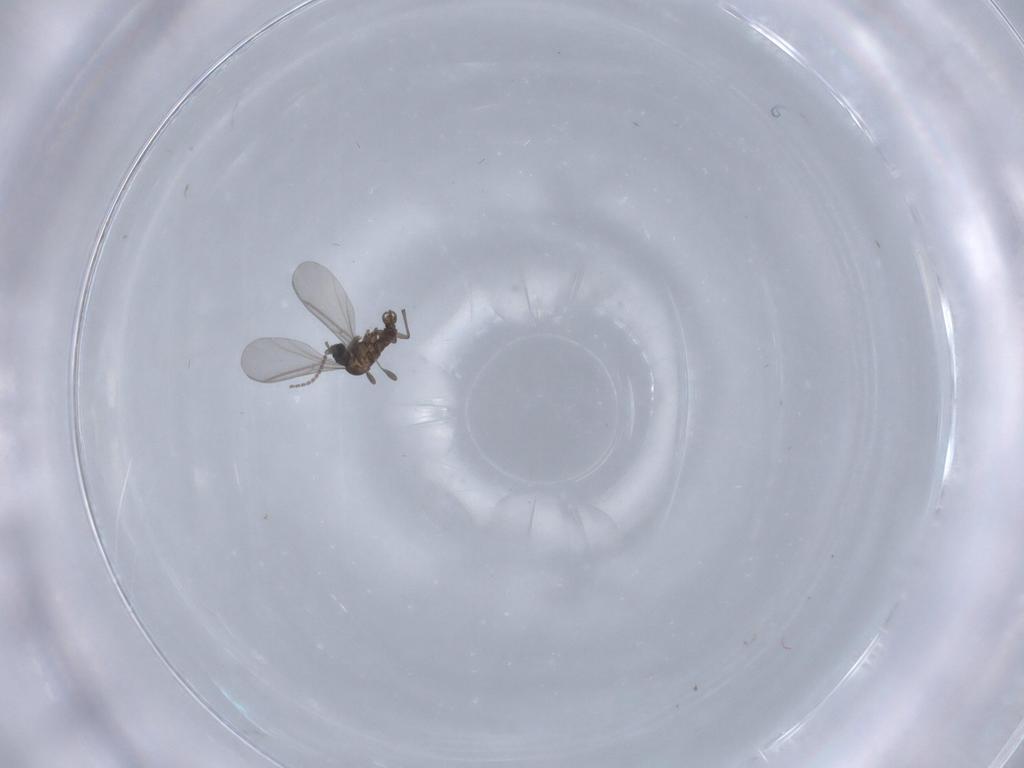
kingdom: Animalia
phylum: Arthropoda
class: Insecta
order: Diptera
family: Sciaridae
